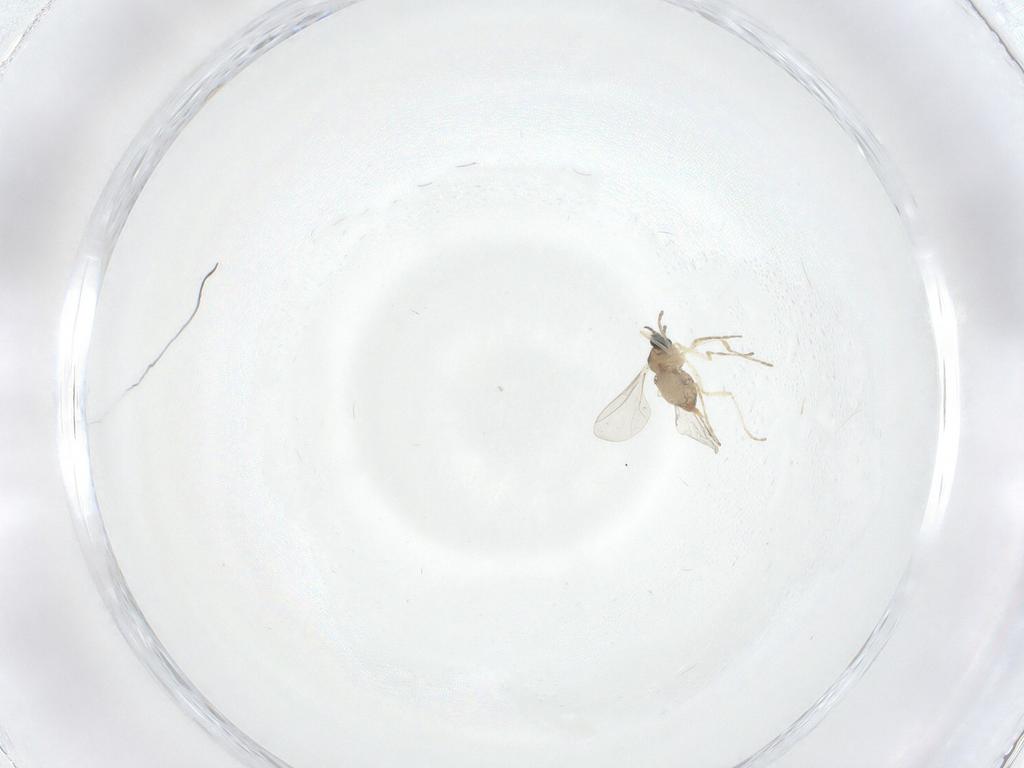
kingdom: Animalia
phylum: Arthropoda
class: Insecta
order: Diptera
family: Cecidomyiidae
